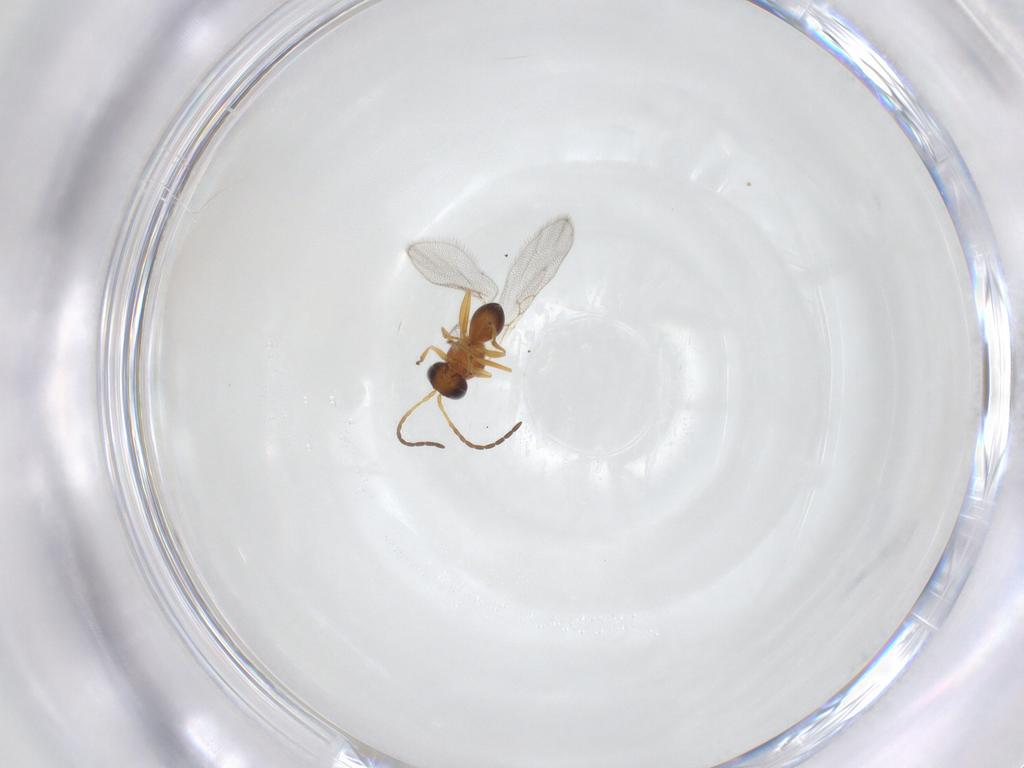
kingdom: Animalia
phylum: Arthropoda
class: Insecta
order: Hymenoptera
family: Figitidae
